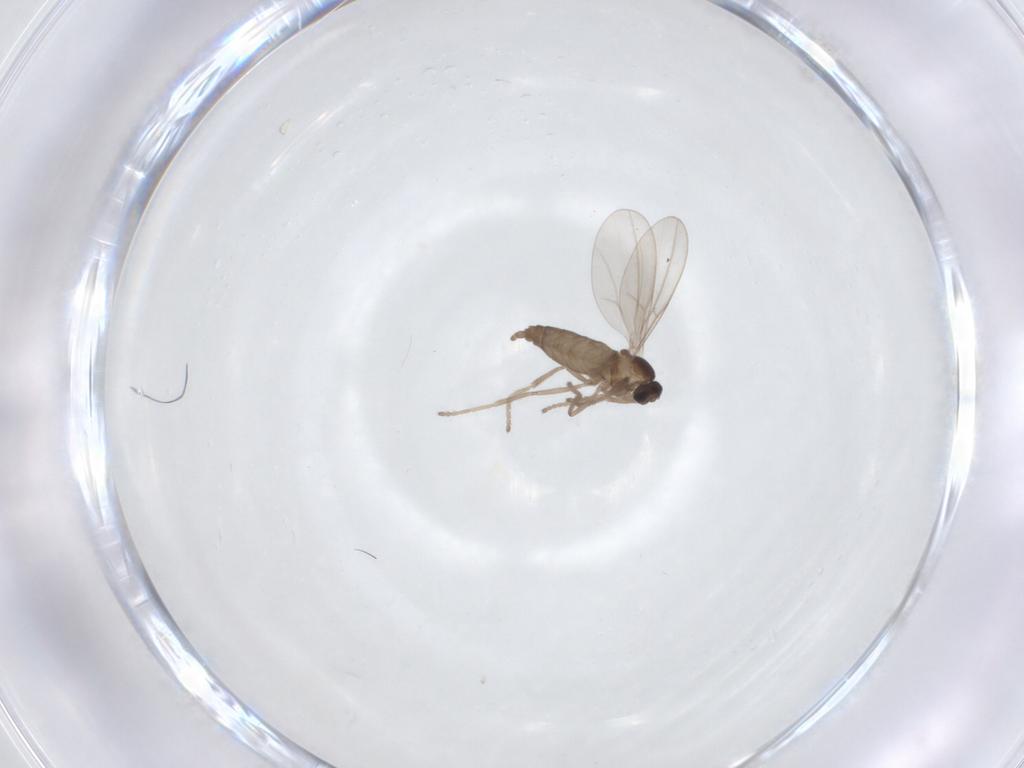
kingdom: Animalia
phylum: Arthropoda
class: Insecta
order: Diptera
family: Cecidomyiidae
